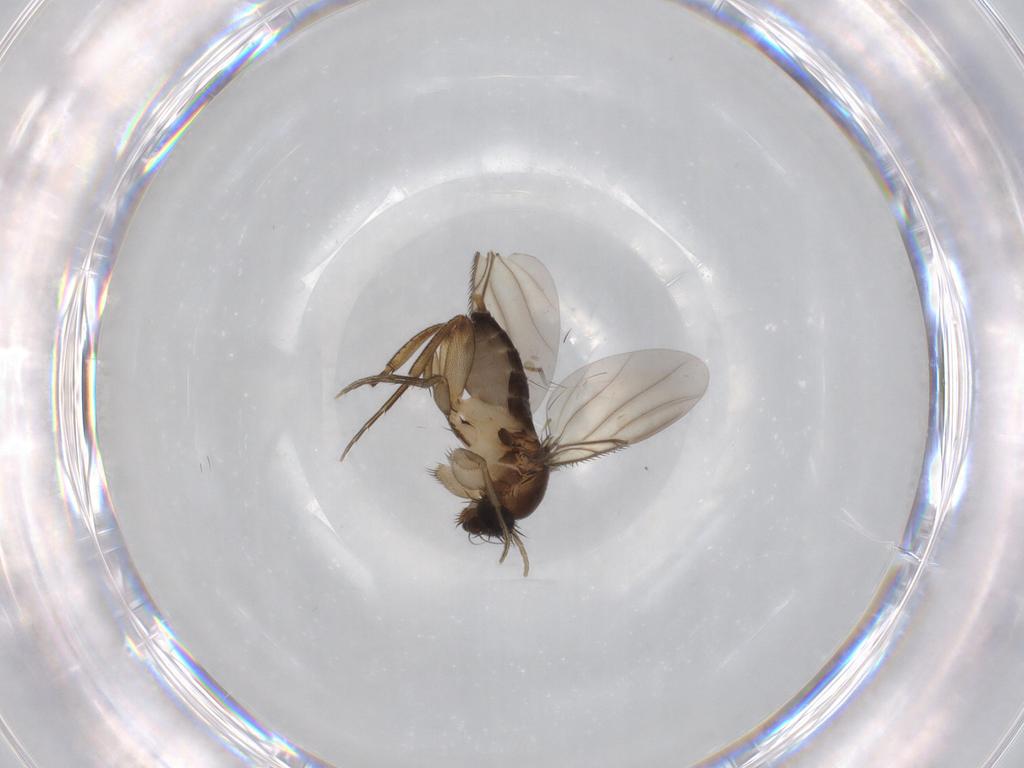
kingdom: Animalia
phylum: Arthropoda
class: Insecta
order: Diptera
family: Phoridae
